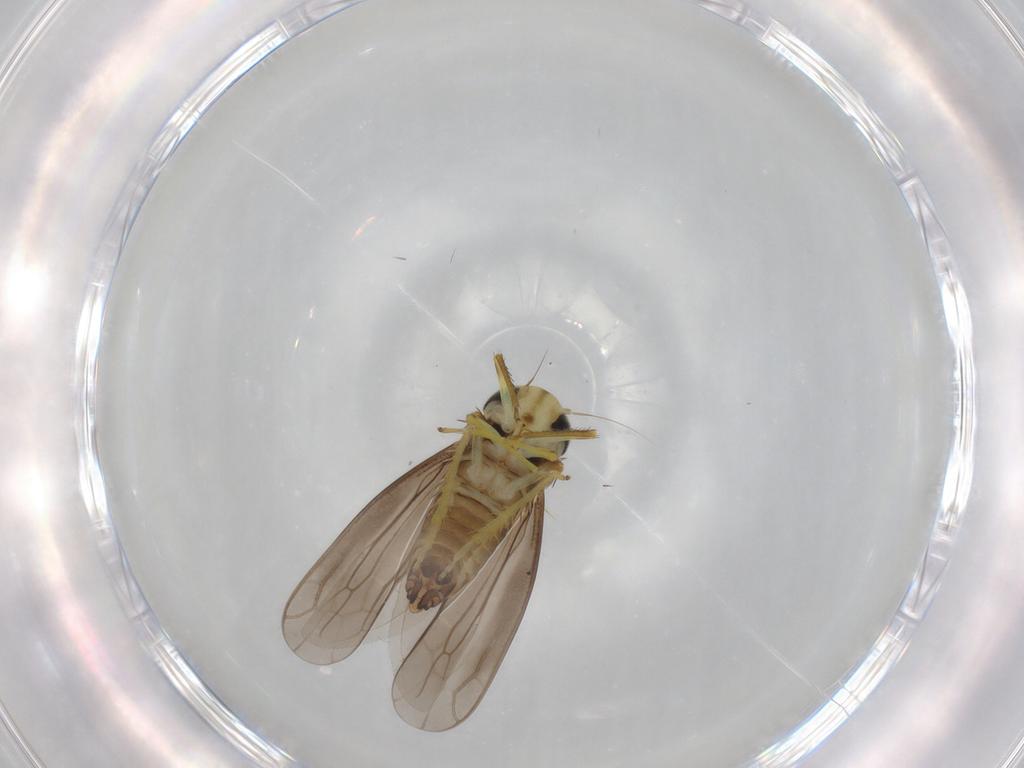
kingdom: Animalia
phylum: Arthropoda
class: Insecta
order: Hemiptera
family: Cicadellidae
